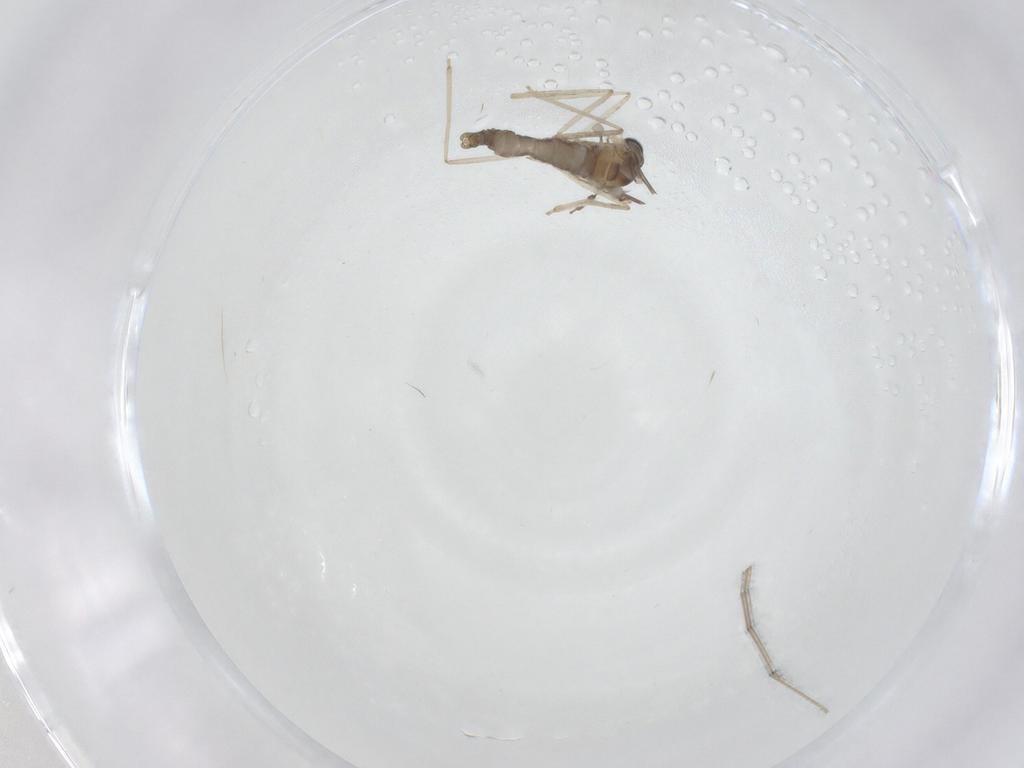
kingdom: Animalia
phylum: Arthropoda
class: Insecta
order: Diptera
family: Cecidomyiidae
